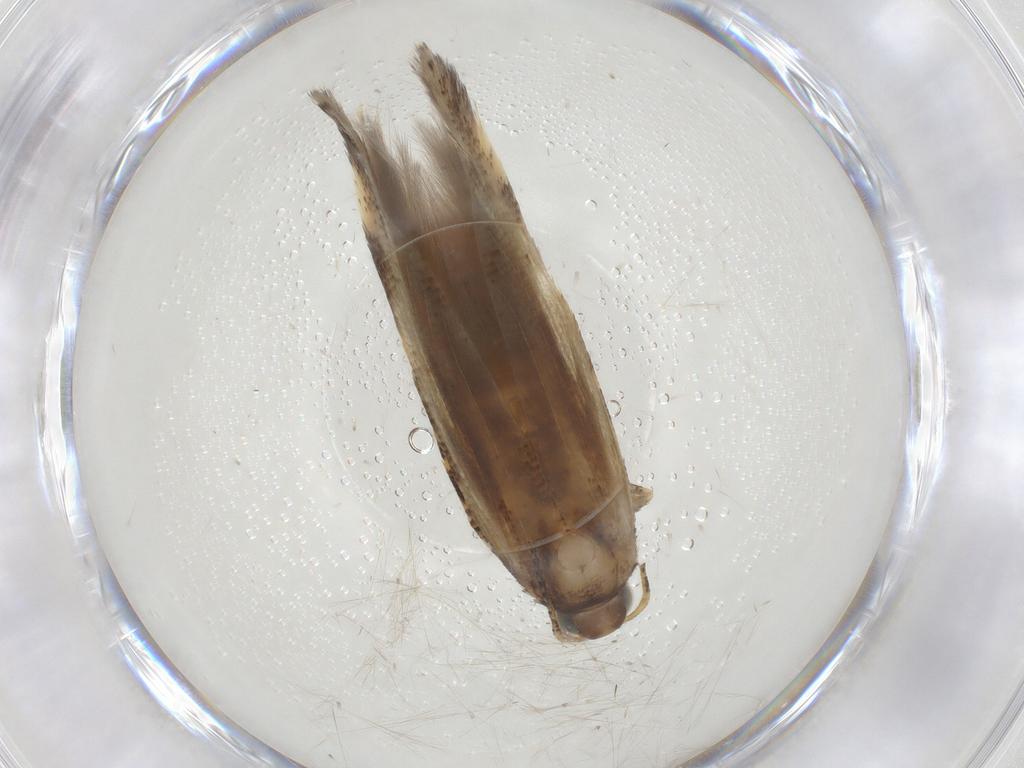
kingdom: Animalia
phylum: Arthropoda
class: Insecta
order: Lepidoptera
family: Gelechiidae
